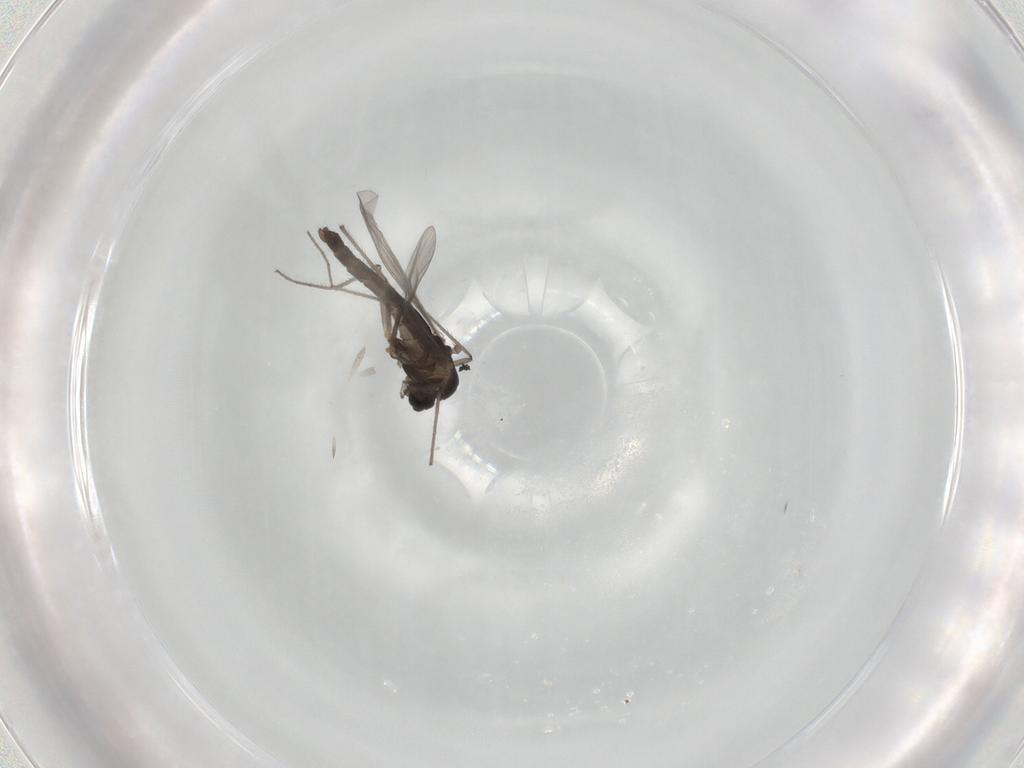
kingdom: Animalia
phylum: Arthropoda
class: Insecta
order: Diptera
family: Chironomidae
